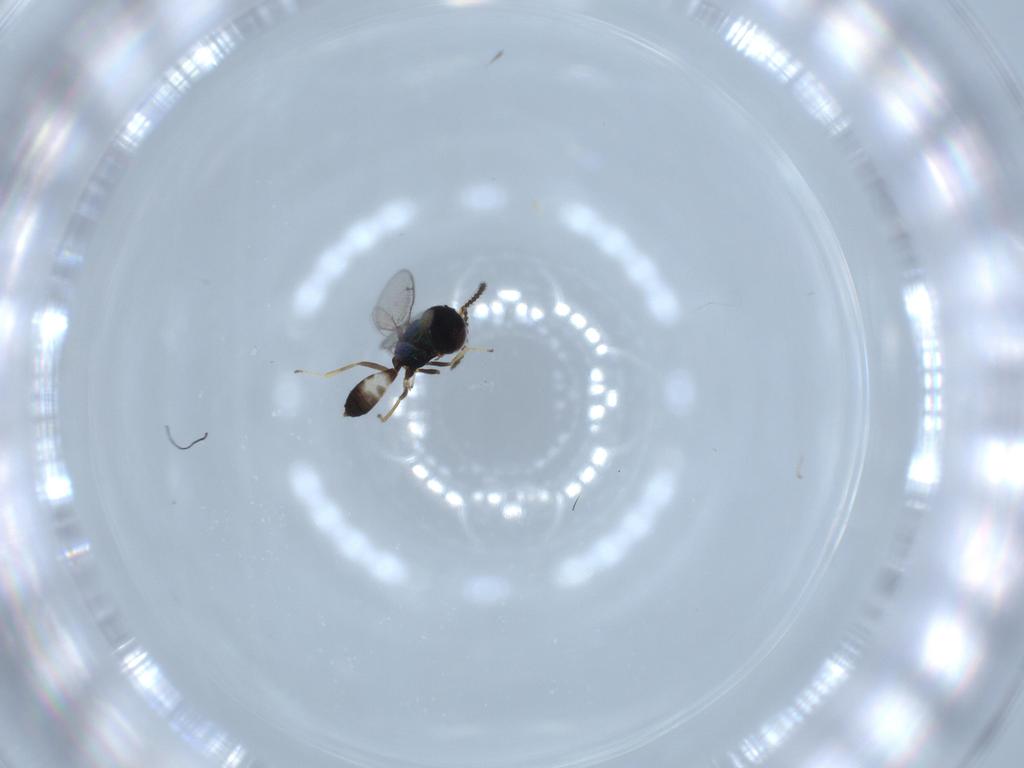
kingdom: Animalia
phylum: Arthropoda
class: Insecta
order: Hymenoptera
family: Pteromalidae
